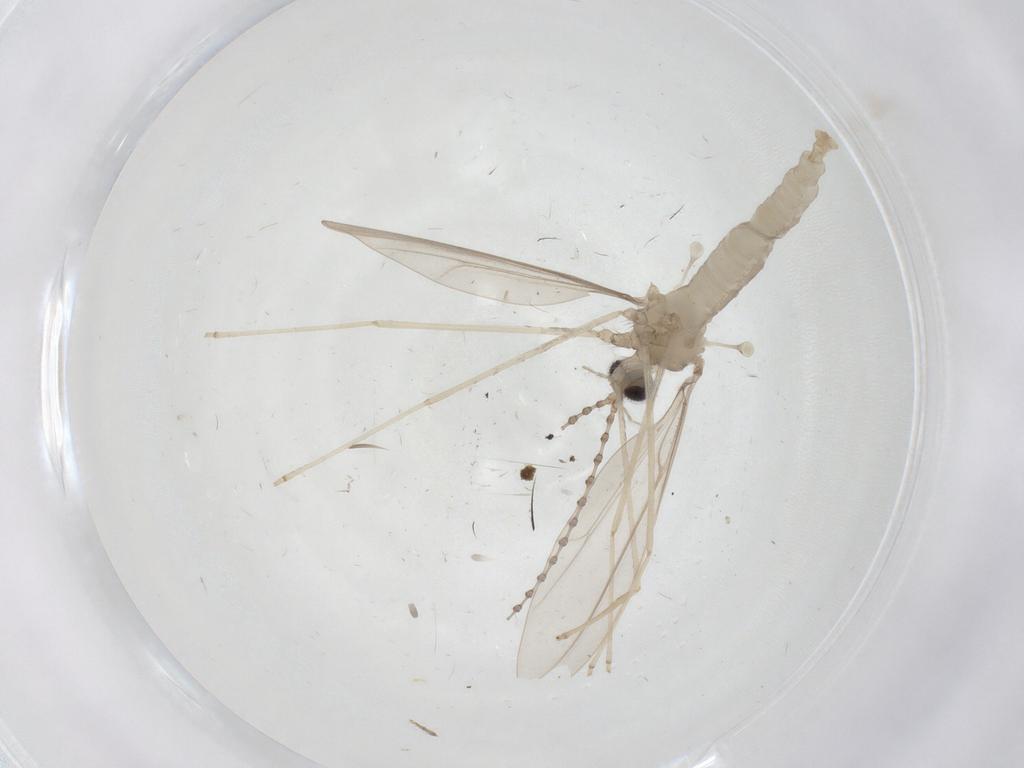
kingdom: Animalia
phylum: Arthropoda
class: Insecta
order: Diptera
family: Cecidomyiidae
